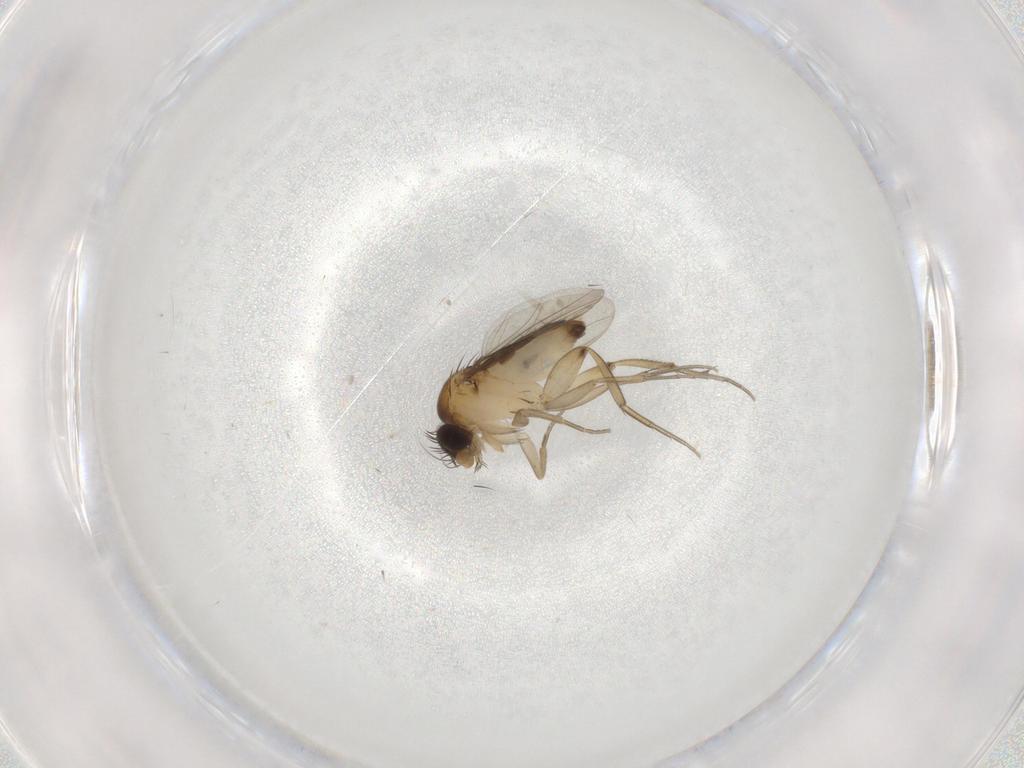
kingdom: Animalia
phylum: Arthropoda
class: Insecta
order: Diptera
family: Phoridae
